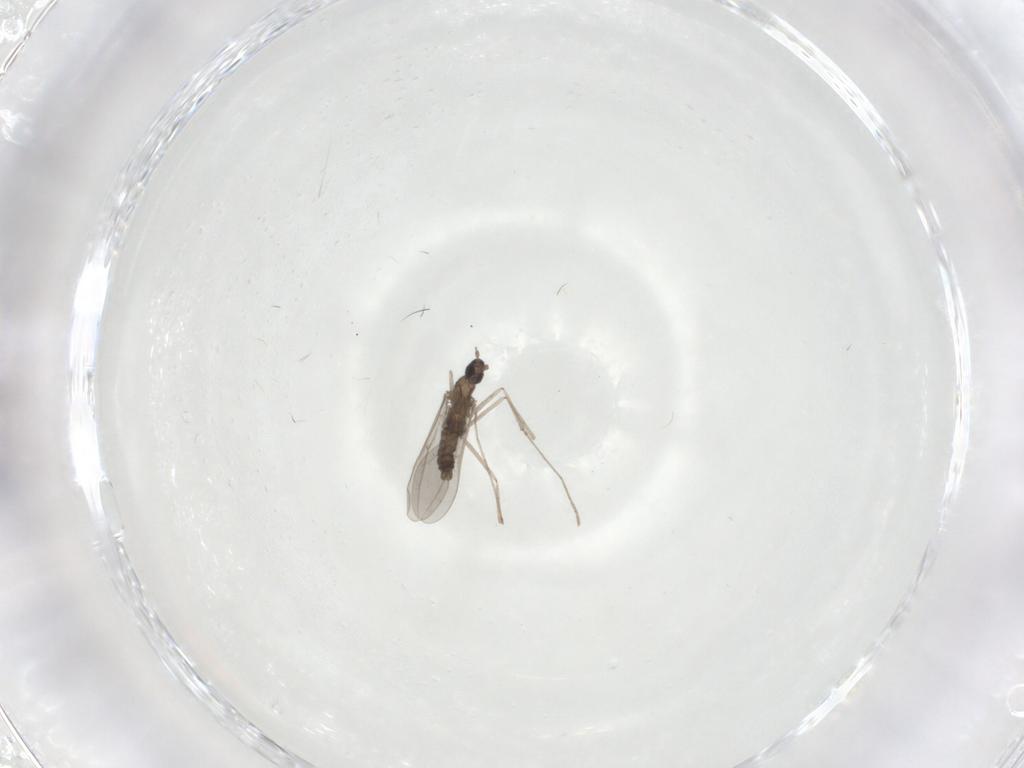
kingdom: Animalia
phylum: Arthropoda
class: Insecta
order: Diptera
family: Cecidomyiidae
